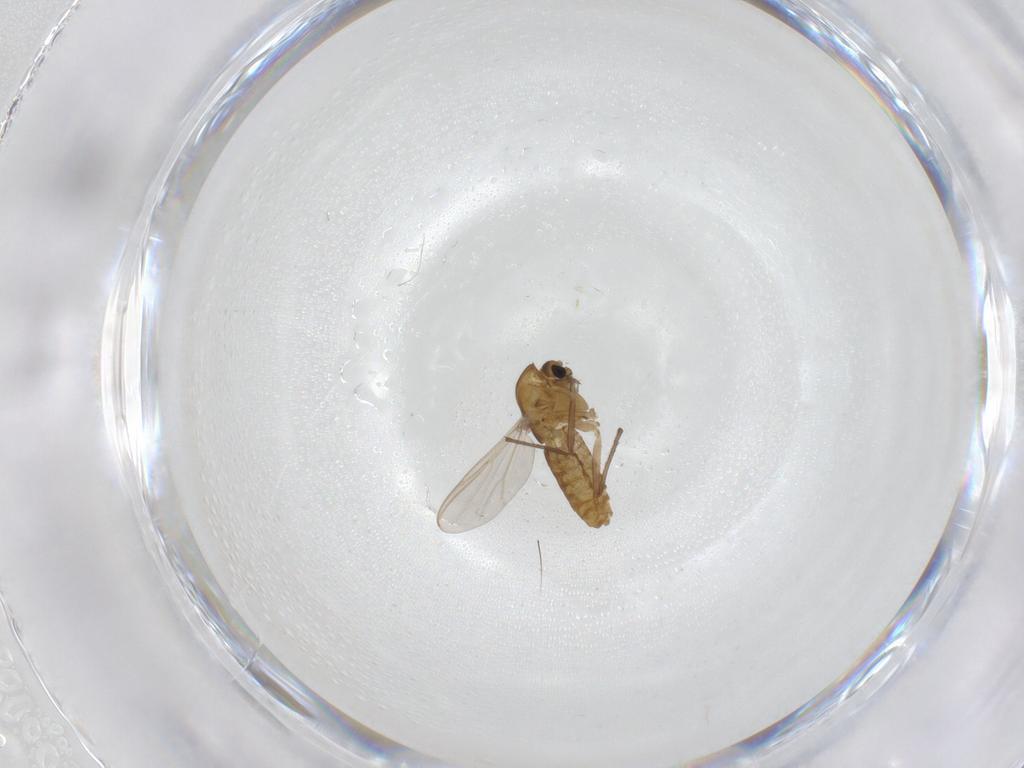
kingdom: Animalia
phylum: Arthropoda
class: Insecta
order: Diptera
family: Chironomidae
